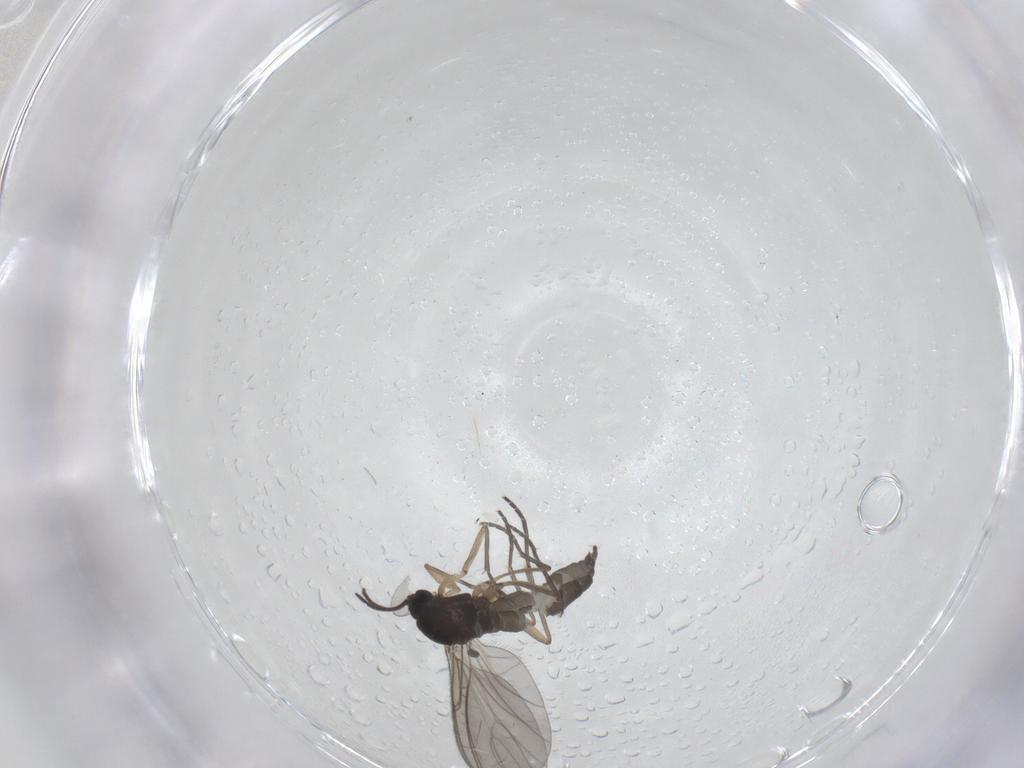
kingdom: Animalia
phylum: Arthropoda
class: Insecta
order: Diptera
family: Sciaridae
